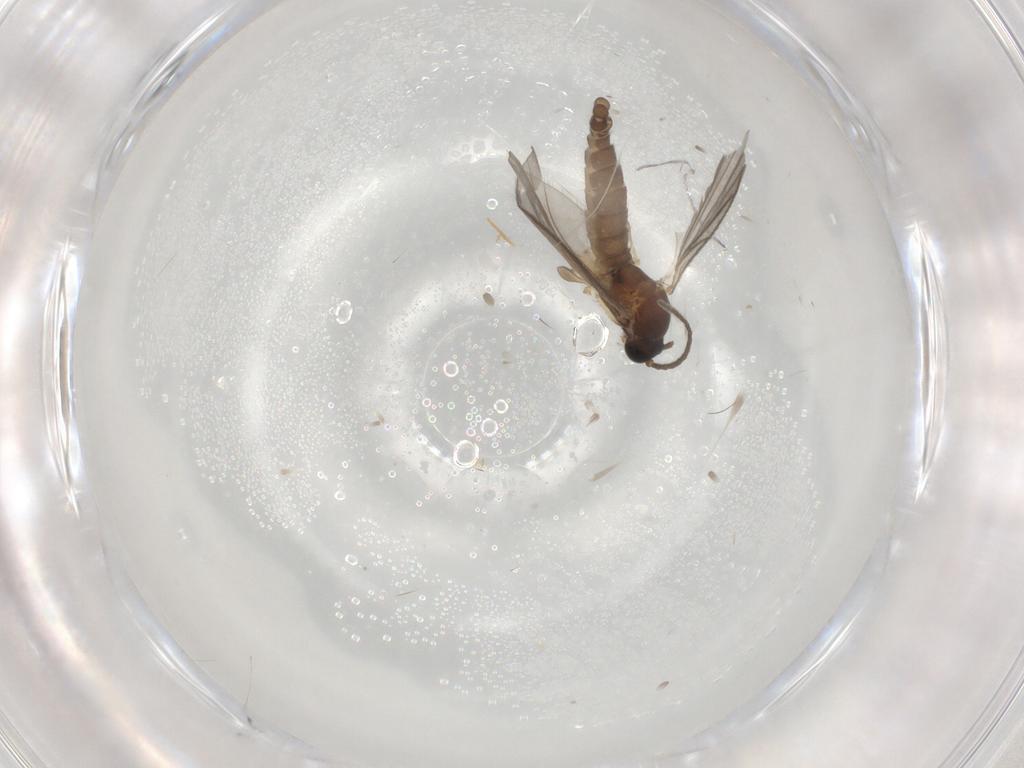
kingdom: Animalia
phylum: Arthropoda
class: Insecta
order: Diptera
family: Sciaridae
